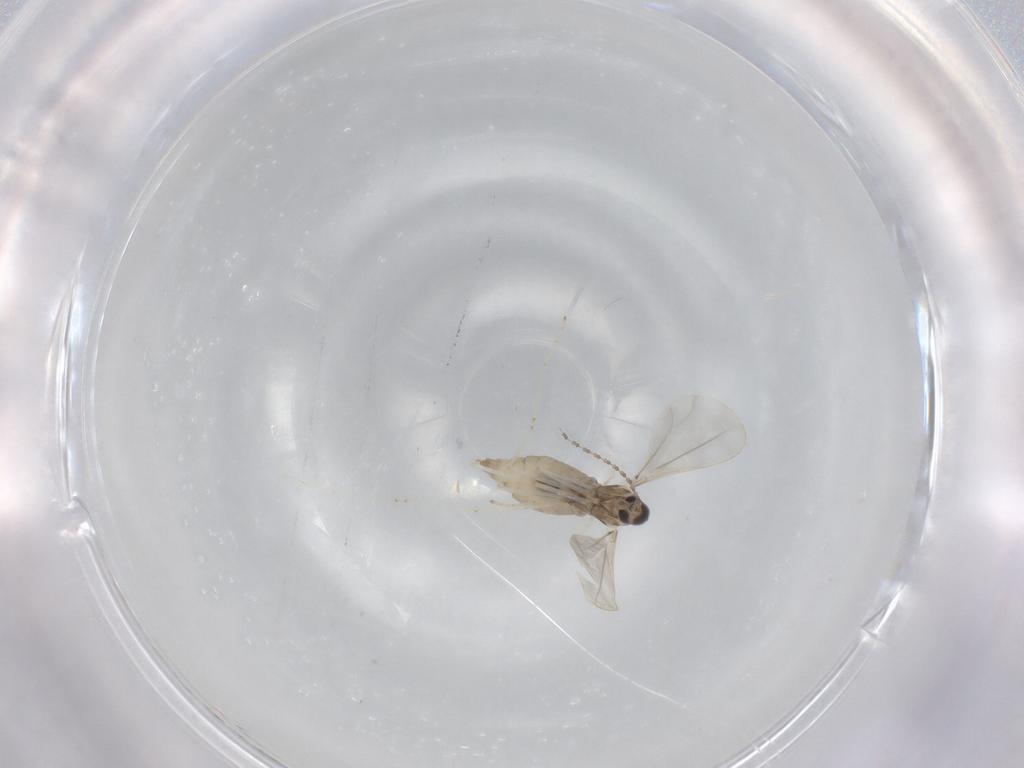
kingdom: Animalia
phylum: Arthropoda
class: Insecta
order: Diptera
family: Cecidomyiidae
